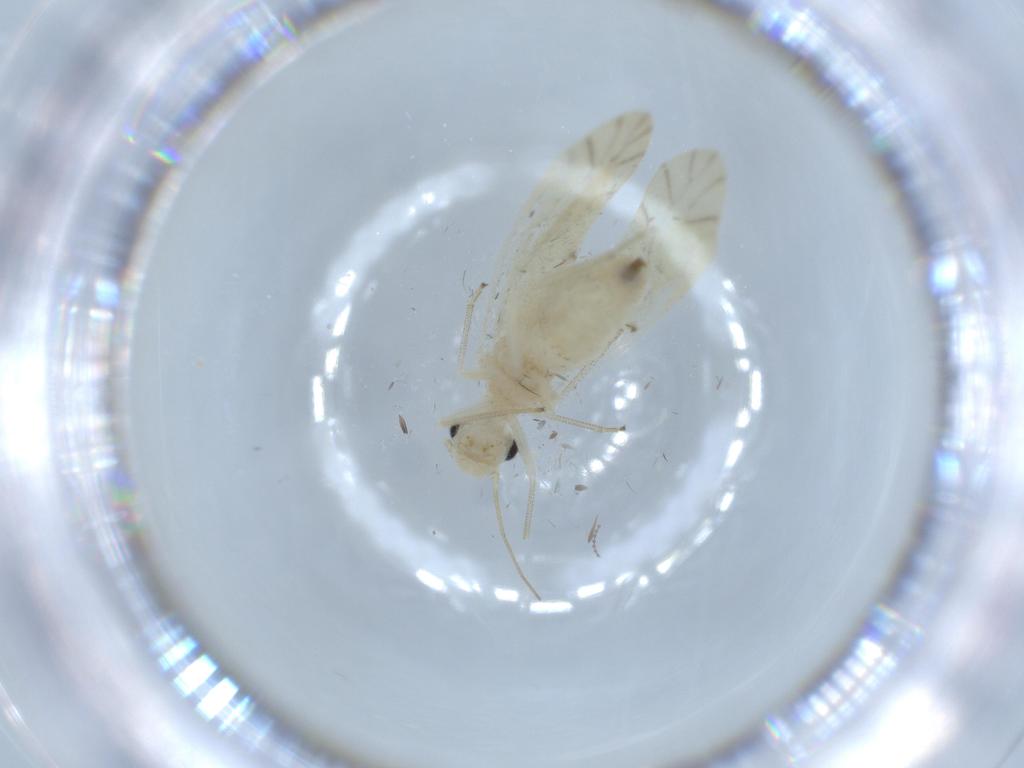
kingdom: Animalia
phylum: Arthropoda
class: Insecta
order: Psocodea
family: Caeciliusidae
